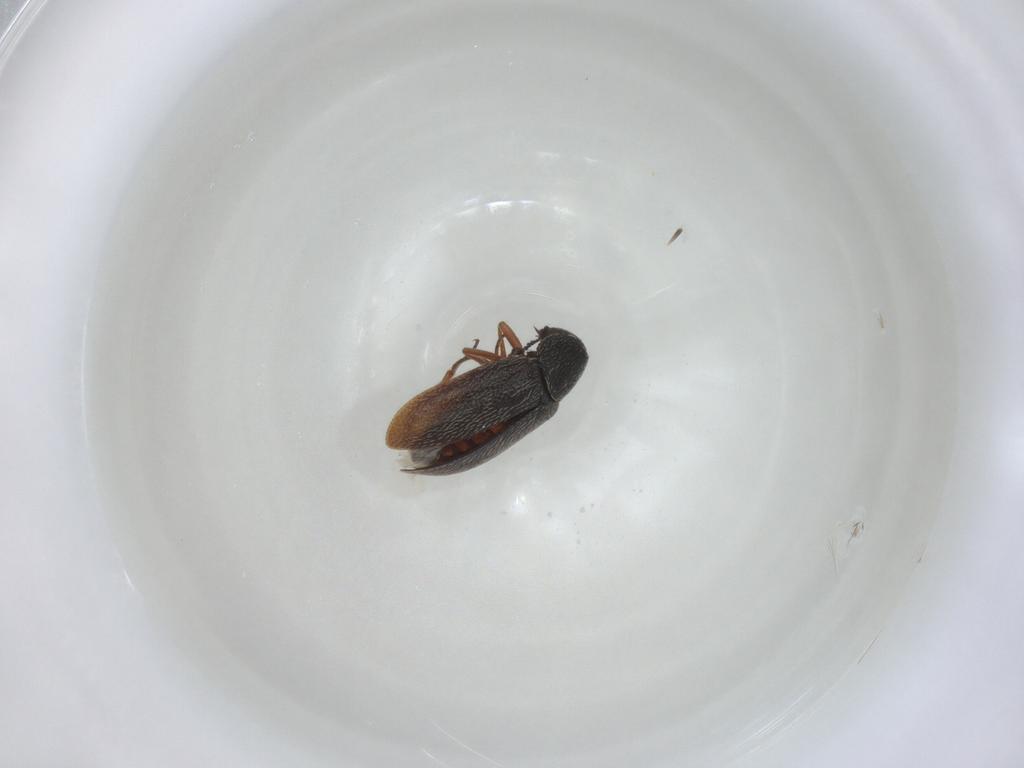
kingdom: Animalia
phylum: Arthropoda
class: Insecta
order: Coleoptera
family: Rhadalidae
